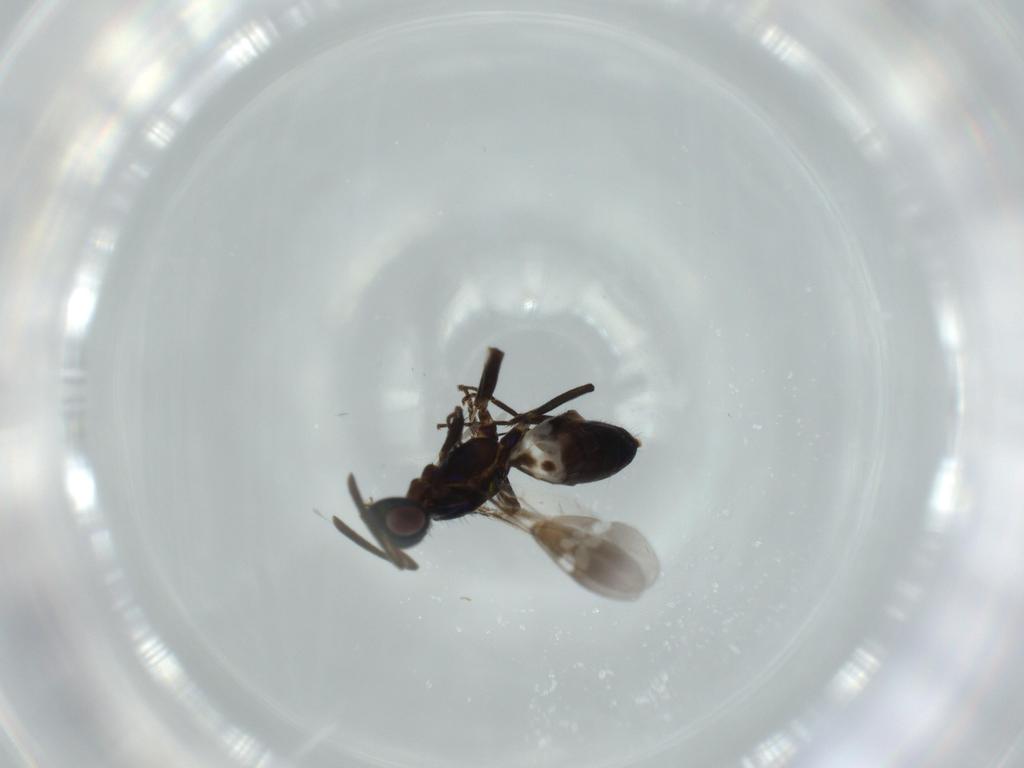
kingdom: Animalia
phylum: Arthropoda
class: Insecta
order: Hymenoptera
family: Eupelmidae
